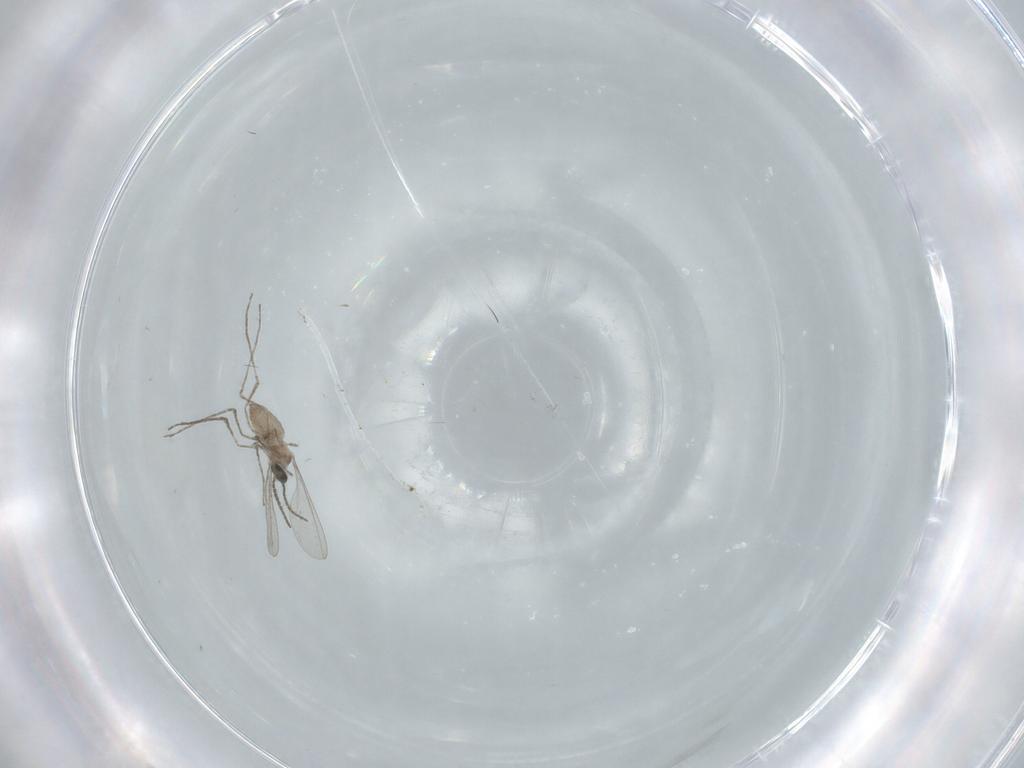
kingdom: Animalia
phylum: Arthropoda
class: Insecta
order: Diptera
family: Cecidomyiidae
